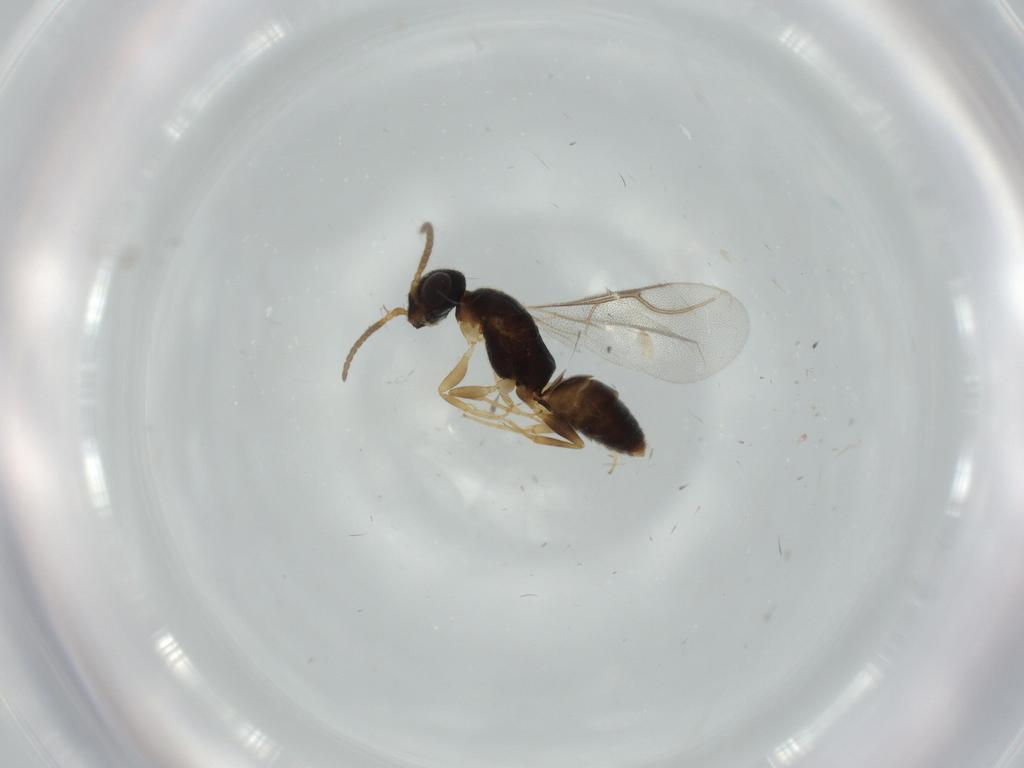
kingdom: Animalia
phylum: Arthropoda
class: Insecta
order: Hymenoptera
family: Bethylidae
